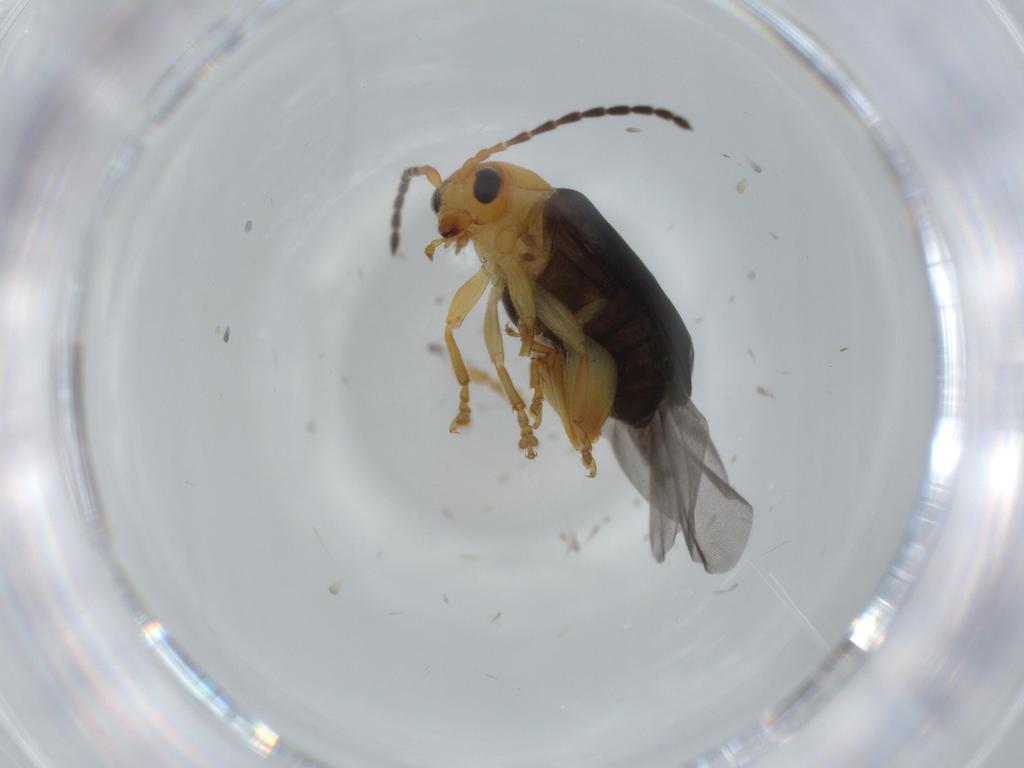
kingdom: Animalia
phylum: Arthropoda
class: Insecta
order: Coleoptera
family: Chrysomelidae
